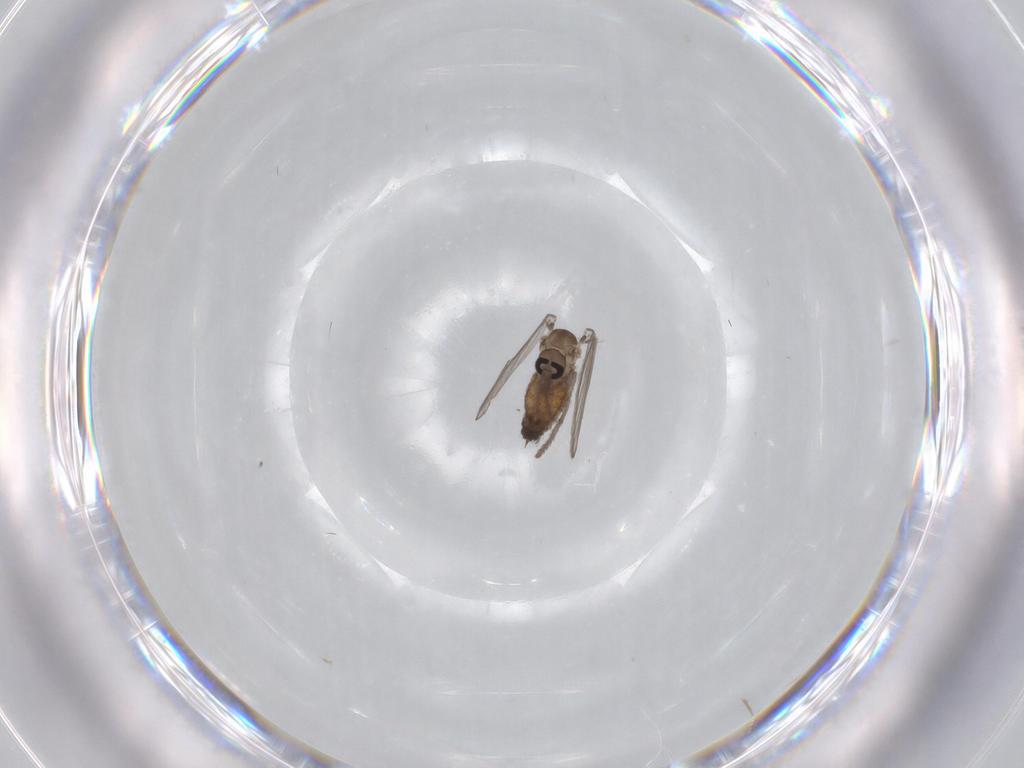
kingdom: Animalia
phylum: Arthropoda
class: Insecta
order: Diptera
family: Psychodidae
